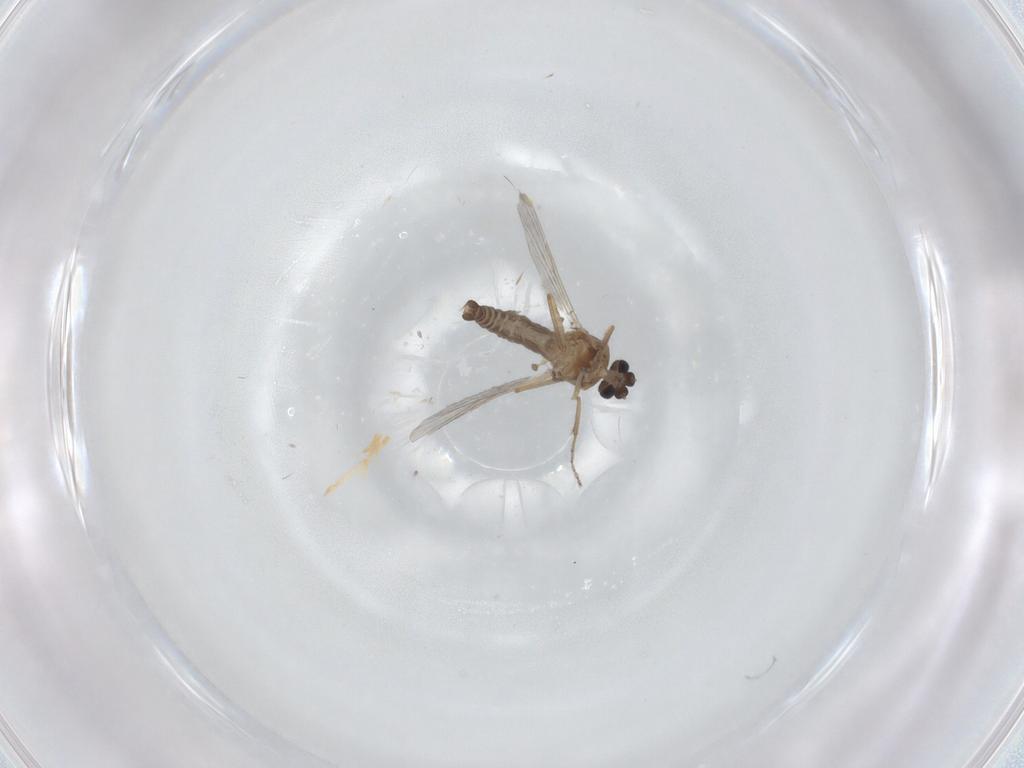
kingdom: Animalia
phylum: Arthropoda
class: Insecta
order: Diptera
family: Ceratopogonidae
